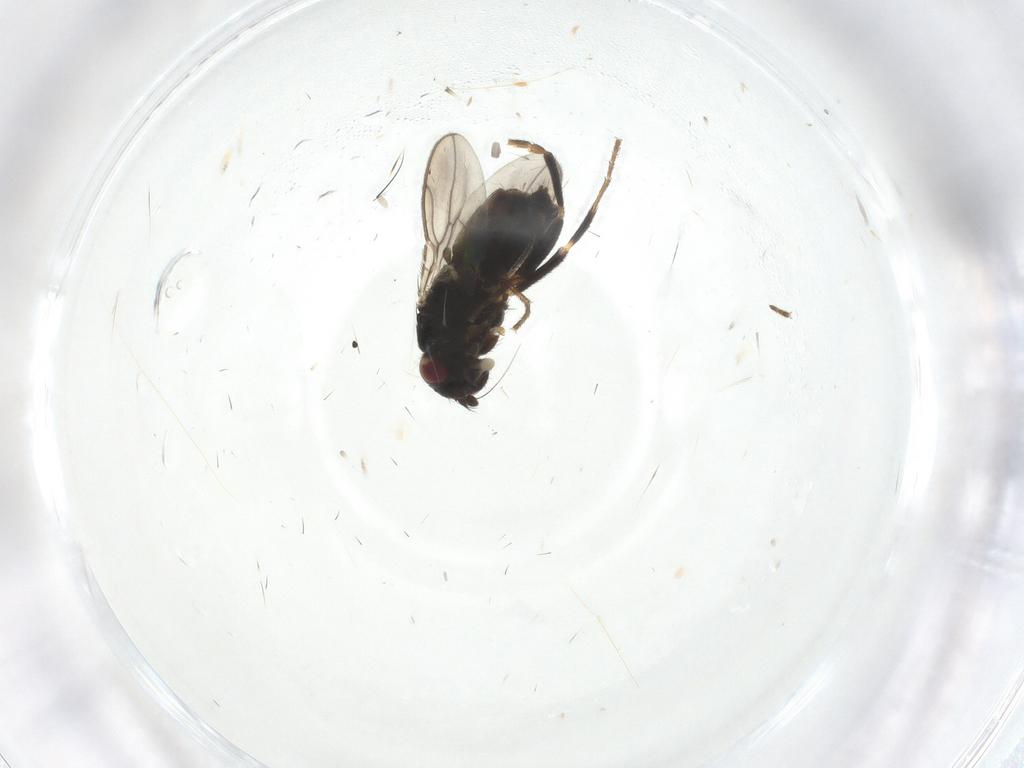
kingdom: Animalia
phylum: Arthropoda
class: Insecta
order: Diptera
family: Sphaeroceridae
